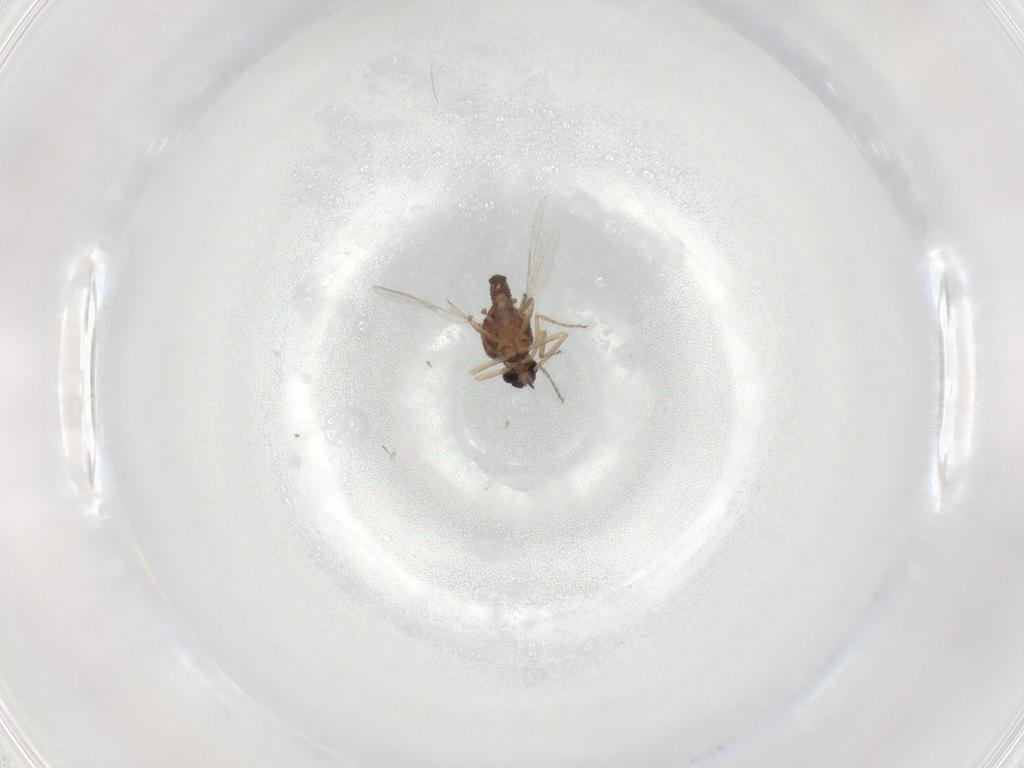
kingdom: Animalia
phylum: Arthropoda
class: Insecta
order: Diptera
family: Ceratopogonidae
